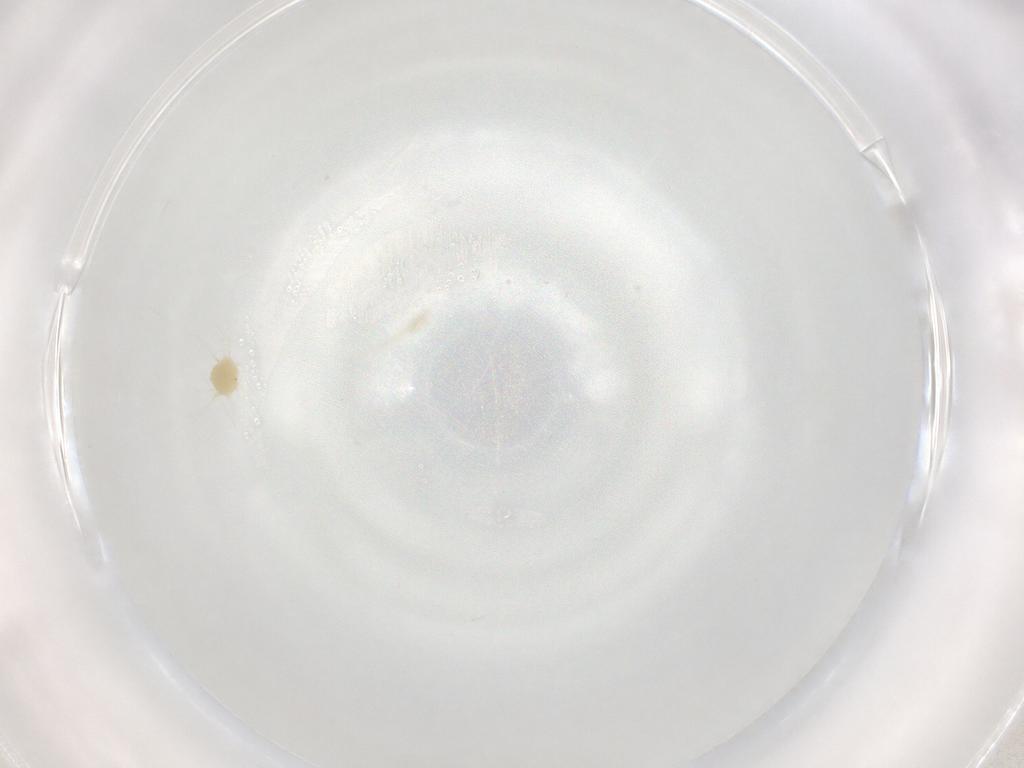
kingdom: Animalia
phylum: Arthropoda
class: Arachnida
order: Trombidiformes
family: Tetranychidae
